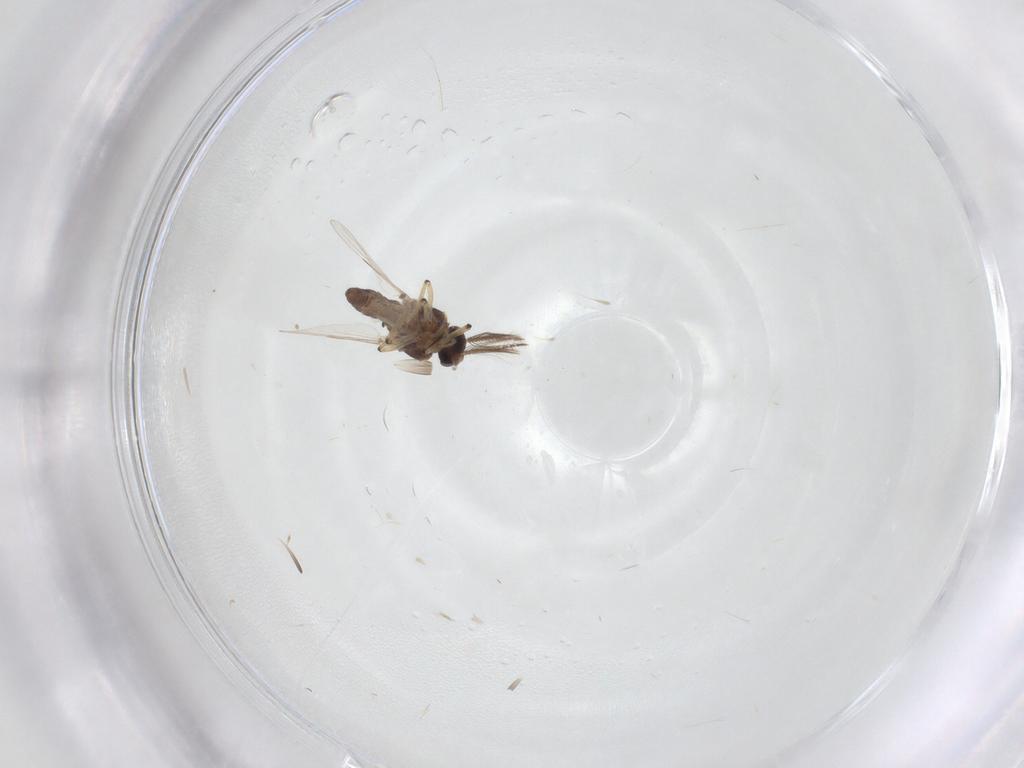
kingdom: Animalia
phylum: Arthropoda
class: Insecta
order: Diptera
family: Ceratopogonidae
